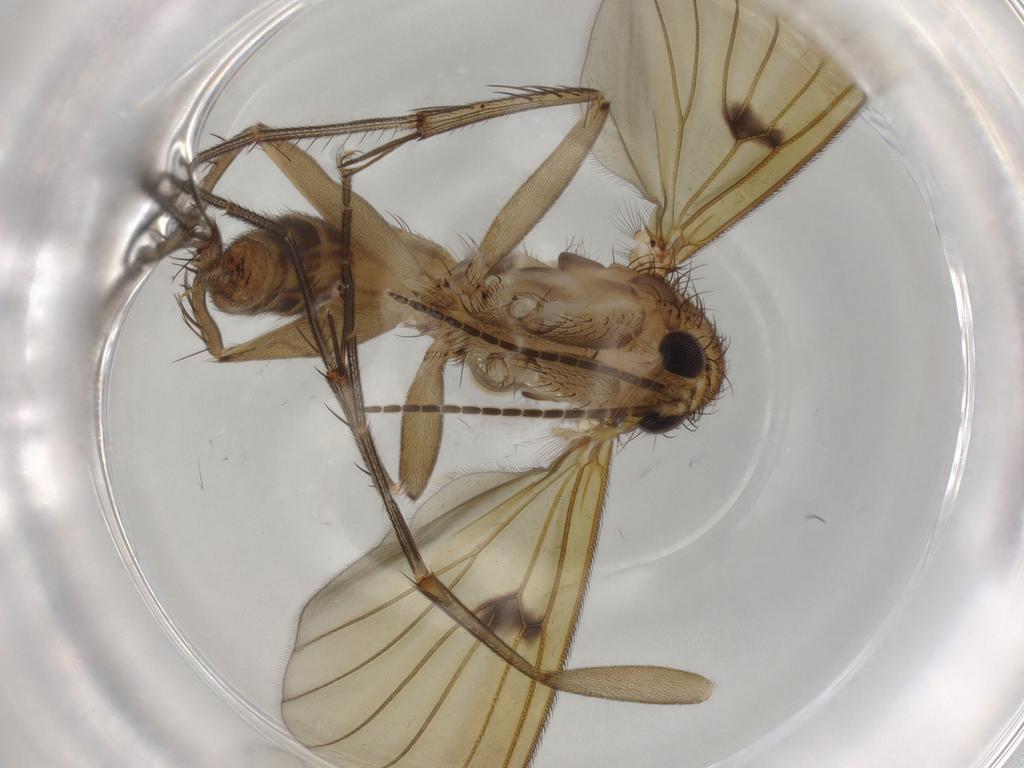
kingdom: Animalia
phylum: Arthropoda
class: Insecta
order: Diptera
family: Mycetophilidae
